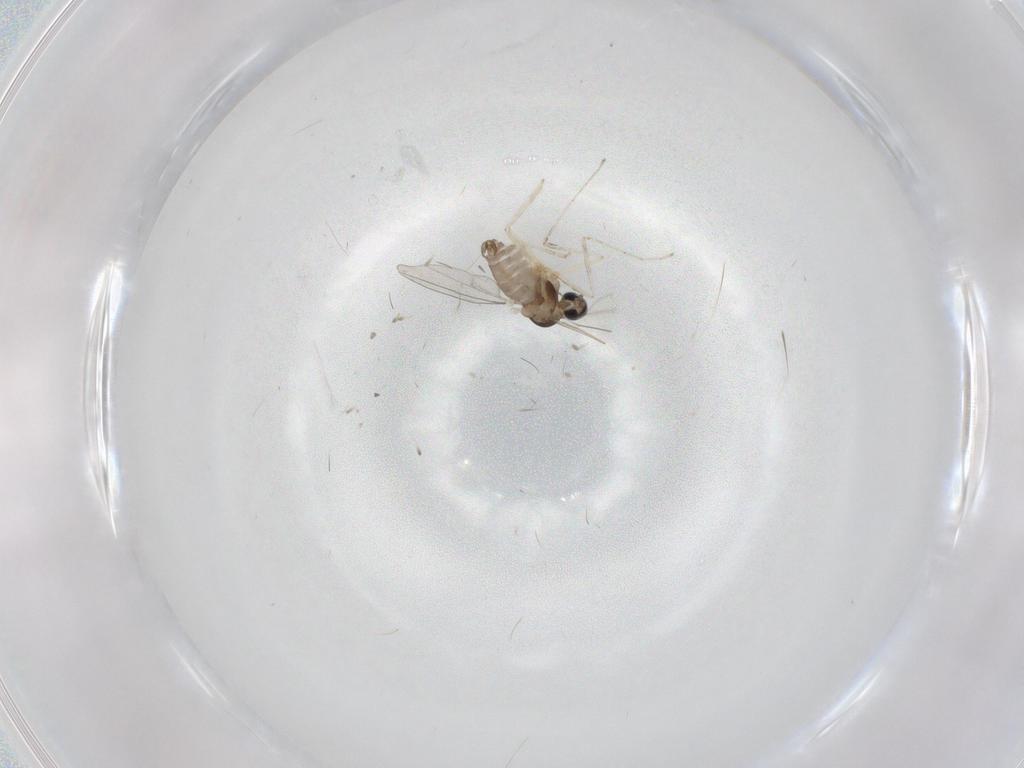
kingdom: Animalia
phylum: Arthropoda
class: Insecta
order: Diptera
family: Cecidomyiidae
